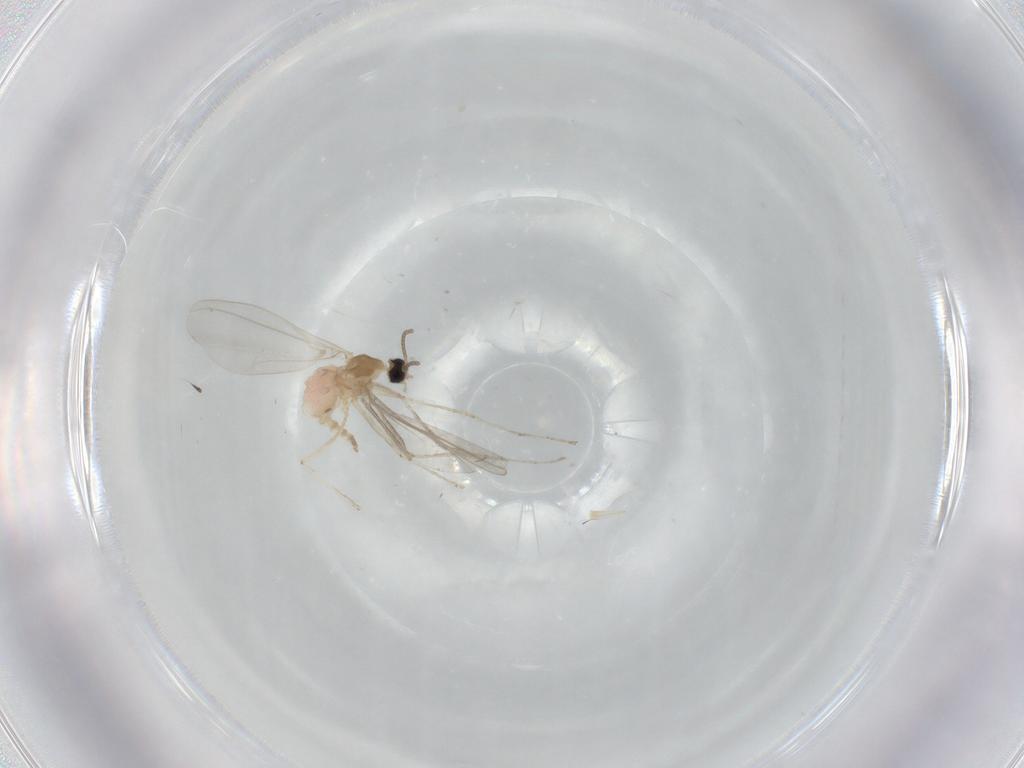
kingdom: Animalia
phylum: Arthropoda
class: Insecta
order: Diptera
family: Cecidomyiidae
